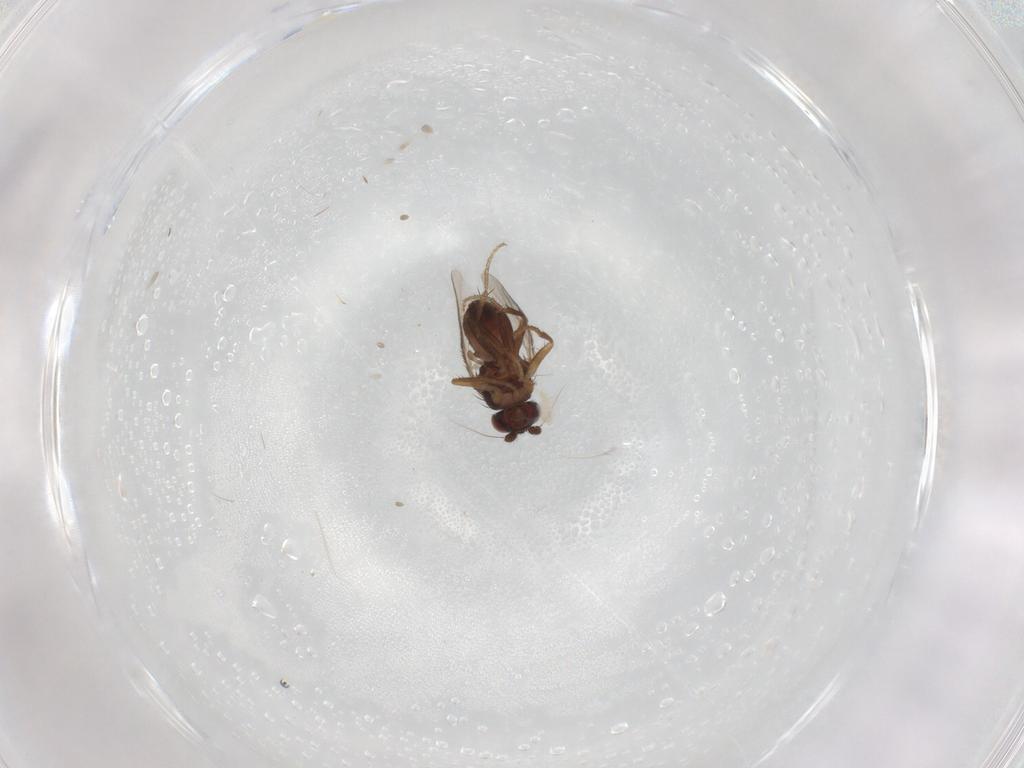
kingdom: Animalia
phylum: Arthropoda
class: Insecta
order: Diptera
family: Sphaeroceridae
